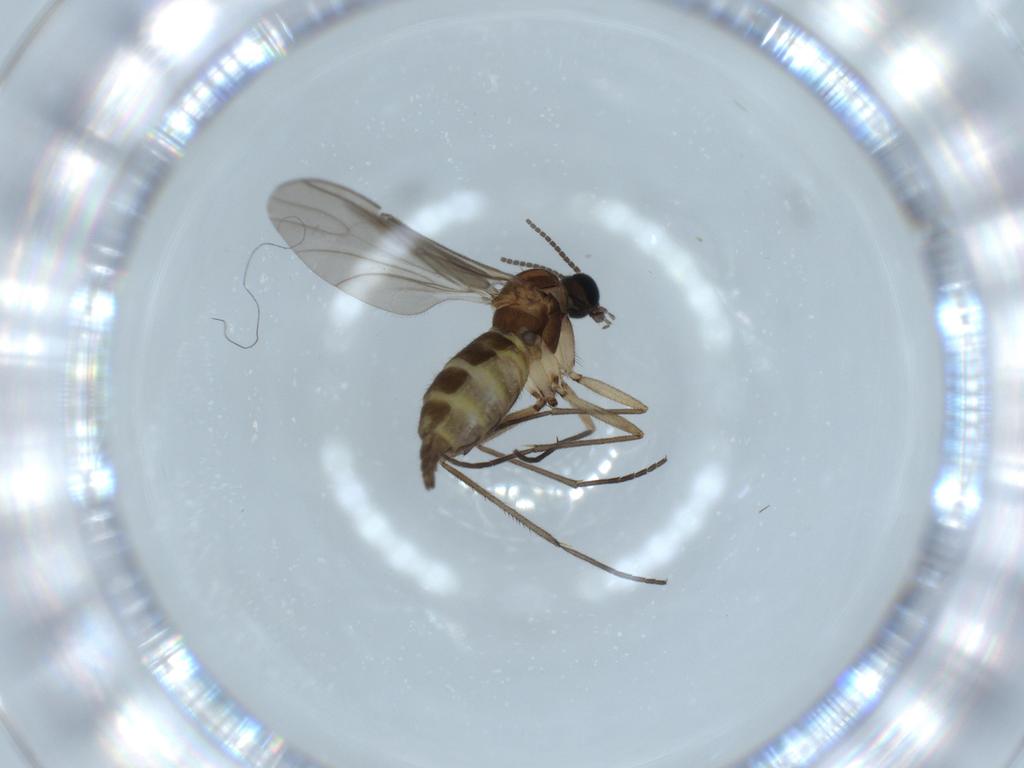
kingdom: Animalia
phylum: Arthropoda
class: Insecta
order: Diptera
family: Sciaridae
